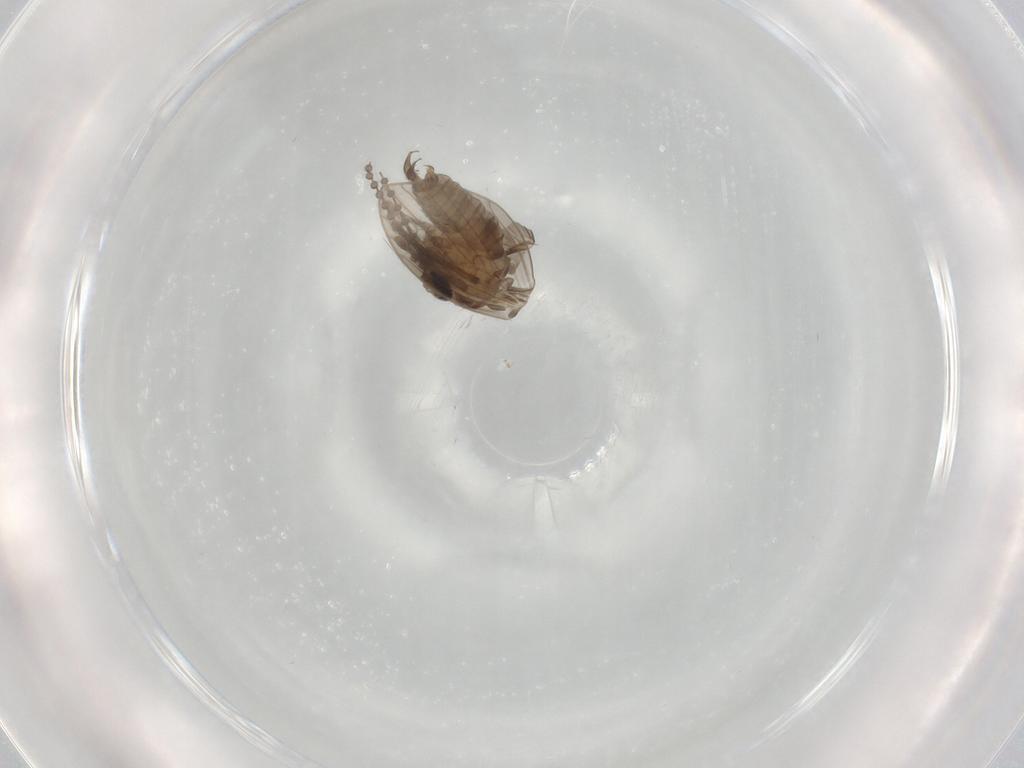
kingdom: Animalia
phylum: Arthropoda
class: Insecta
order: Diptera
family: Psychodidae
